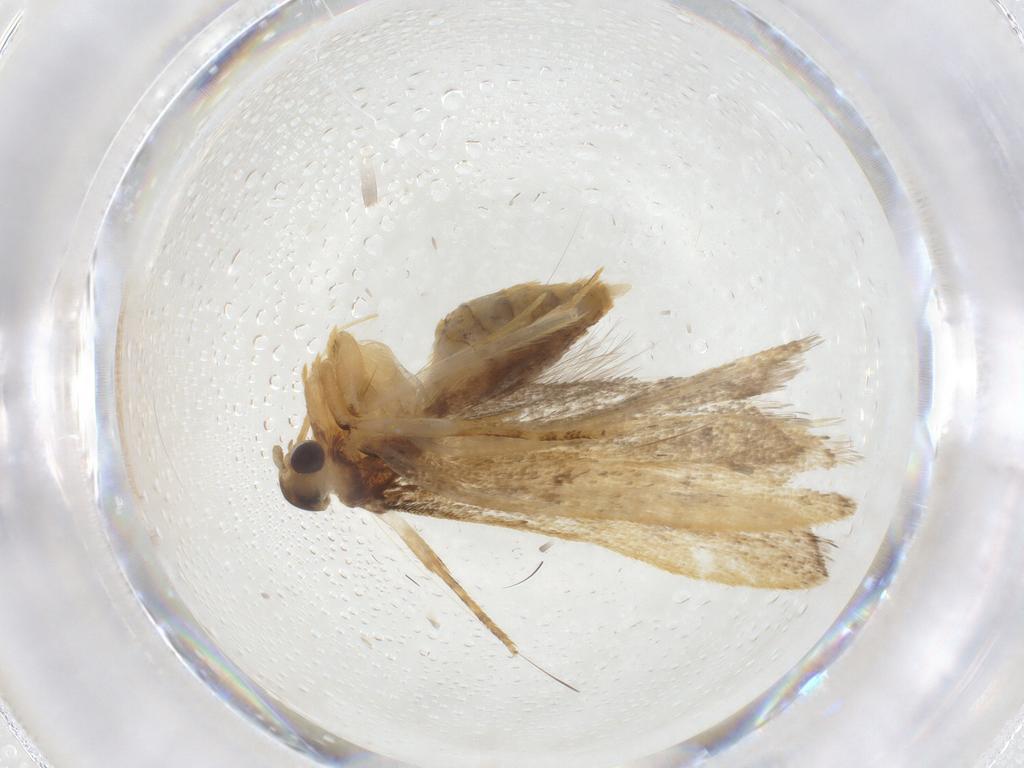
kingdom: Animalia
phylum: Arthropoda
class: Insecta
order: Lepidoptera
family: Lecithoceridae
